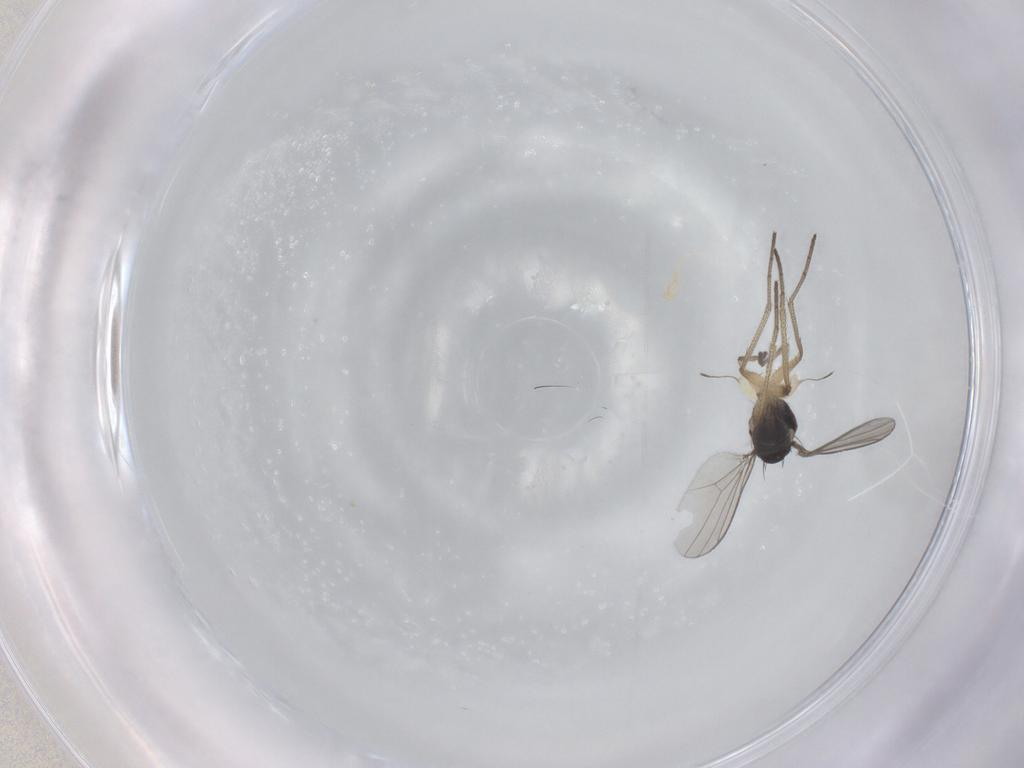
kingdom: Animalia
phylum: Arthropoda
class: Insecta
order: Diptera
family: Dolichopodidae
